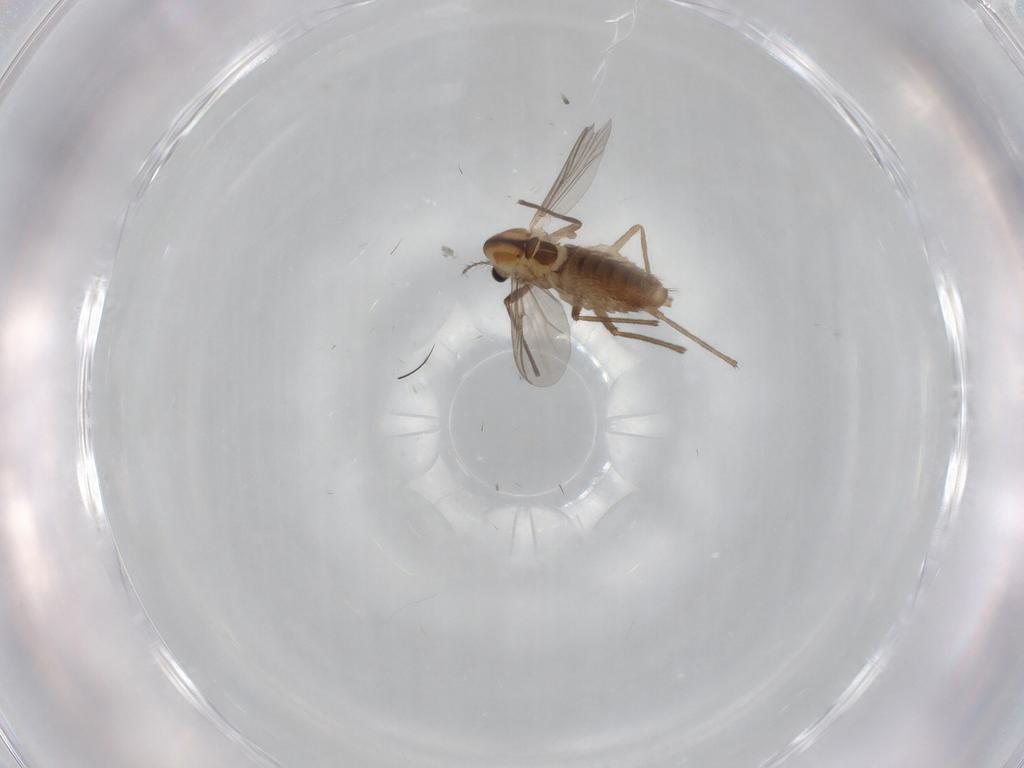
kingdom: Animalia
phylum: Arthropoda
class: Insecta
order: Diptera
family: Chironomidae
